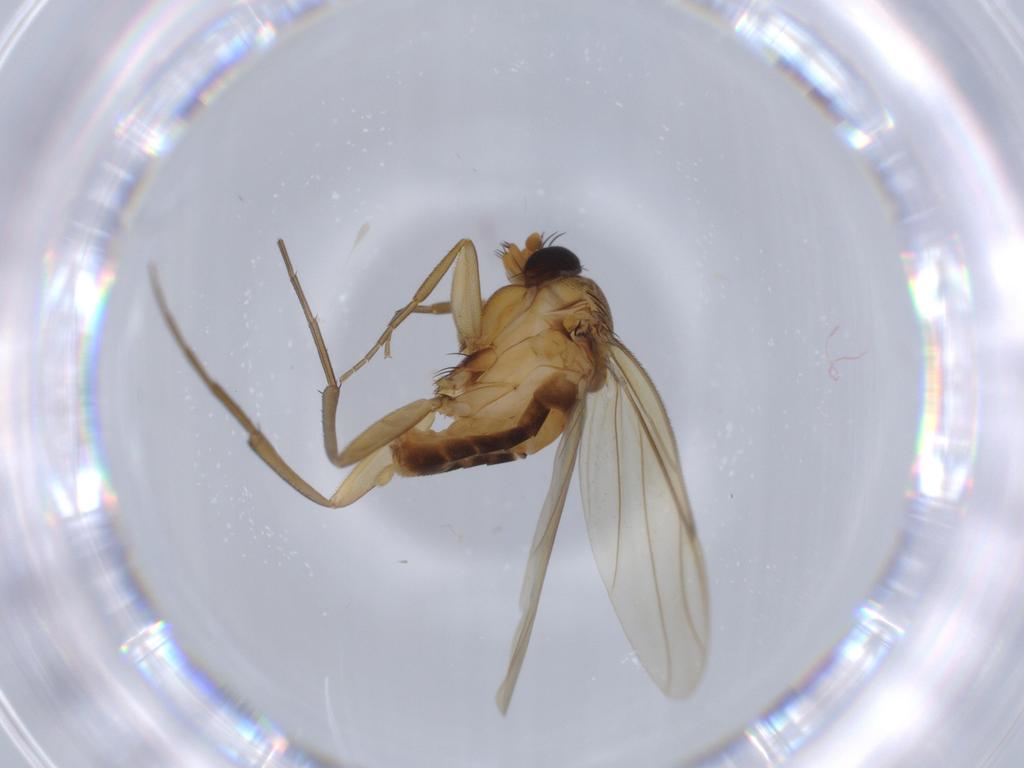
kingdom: Animalia
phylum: Arthropoda
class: Insecta
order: Diptera
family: Phoridae
